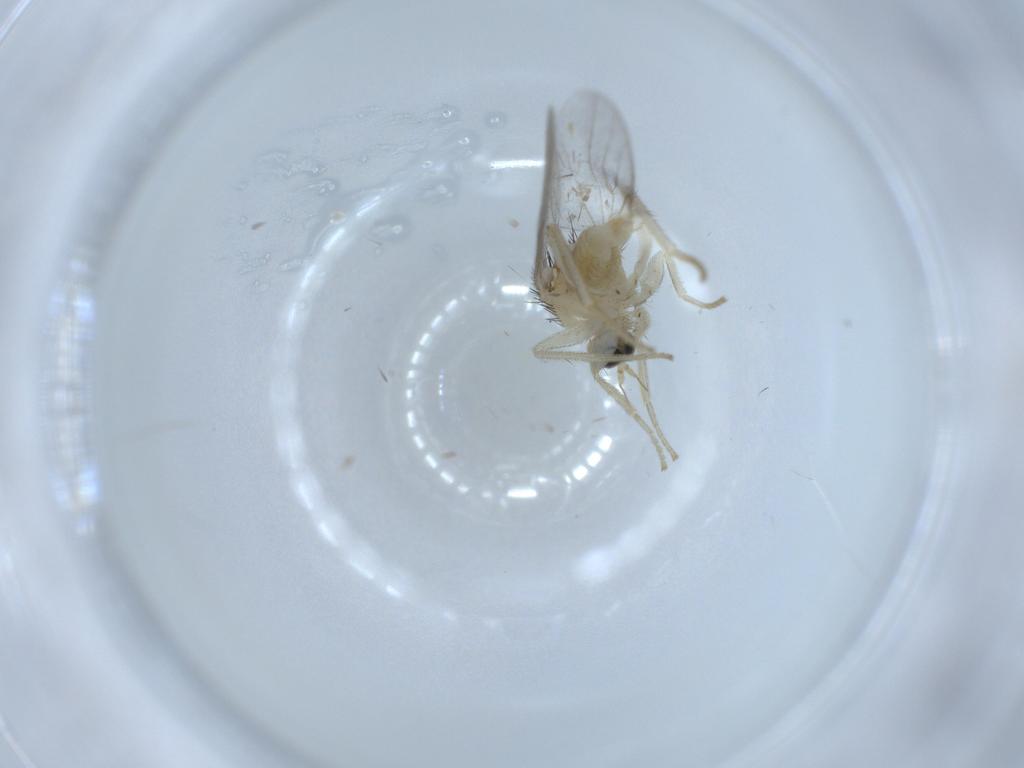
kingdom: Animalia
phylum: Arthropoda
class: Insecta
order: Diptera
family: Hybotidae
